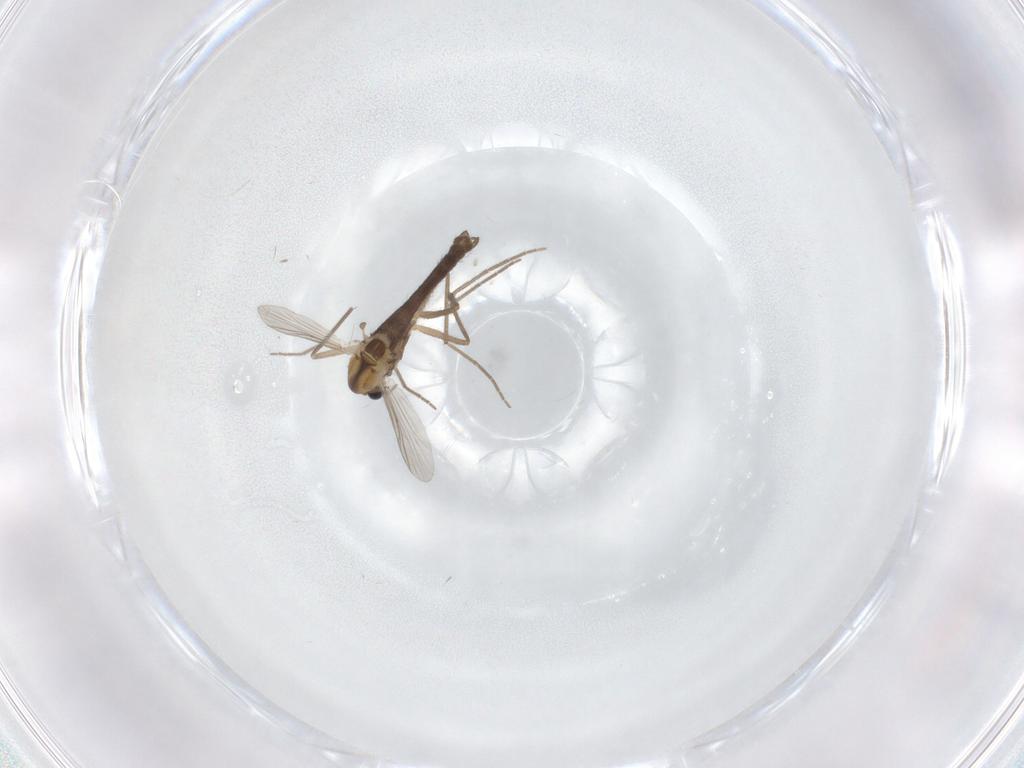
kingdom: Animalia
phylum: Arthropoda
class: Insecta
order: Diptera
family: Chironomidae
